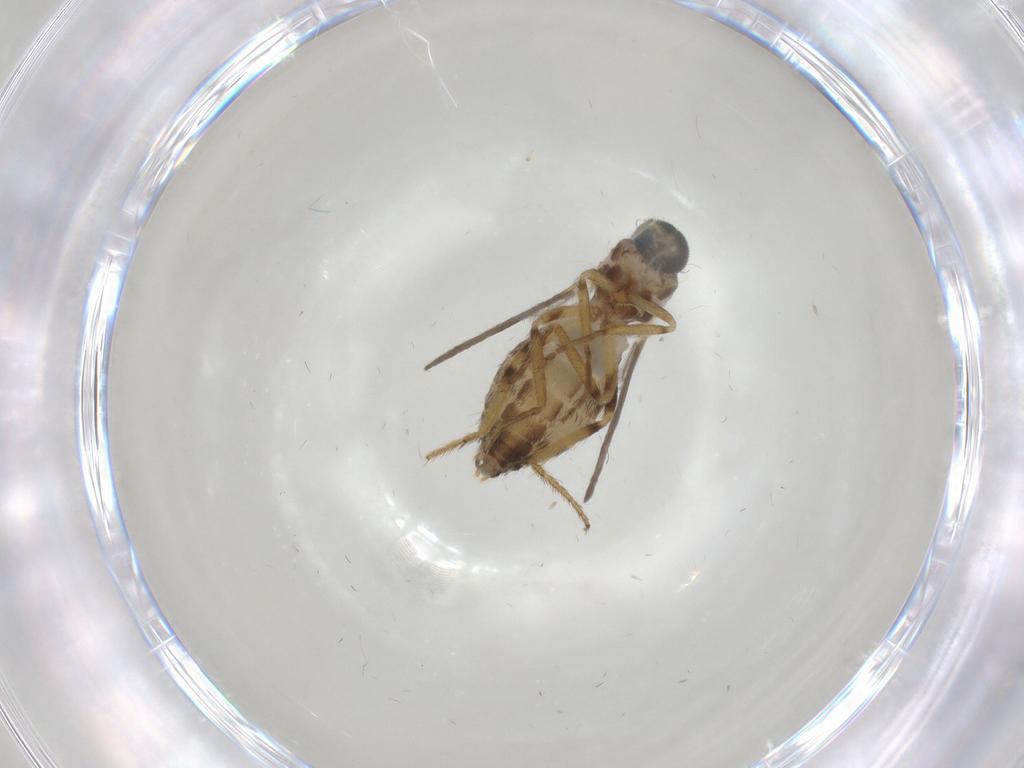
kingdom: Animalia
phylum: Arthropoda
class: Insecta
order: Diptera
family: Ceratopogonidae
